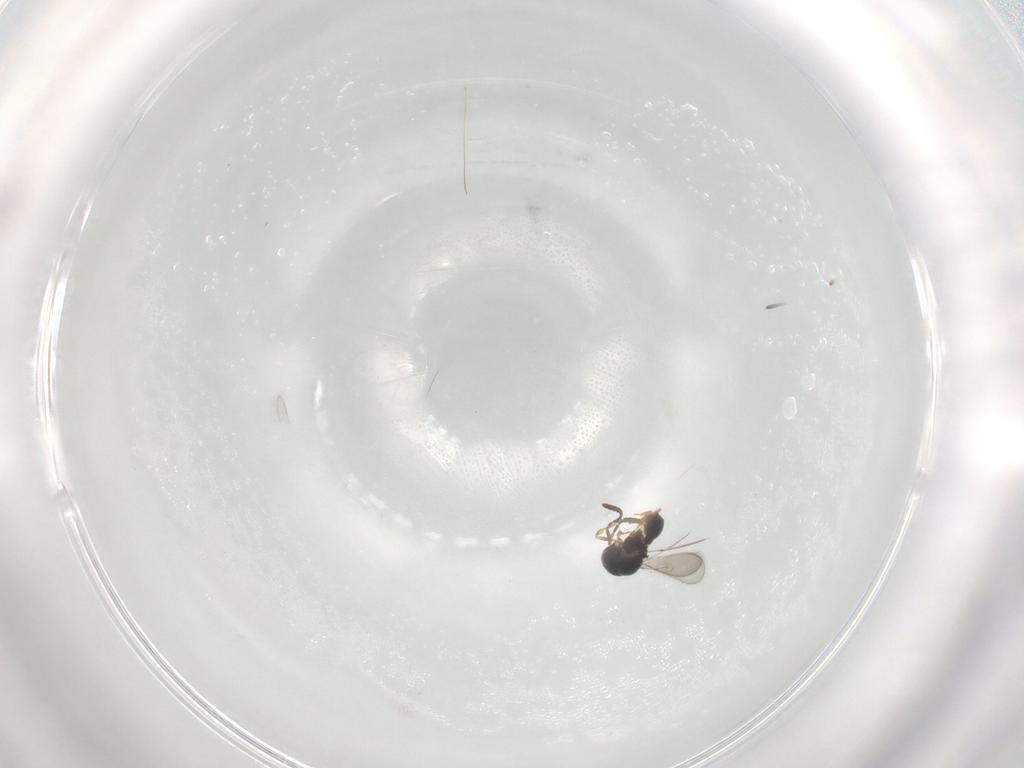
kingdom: Animalia
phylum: Arthropoda
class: Insecta
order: Hymenoptera
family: Scelionidae
